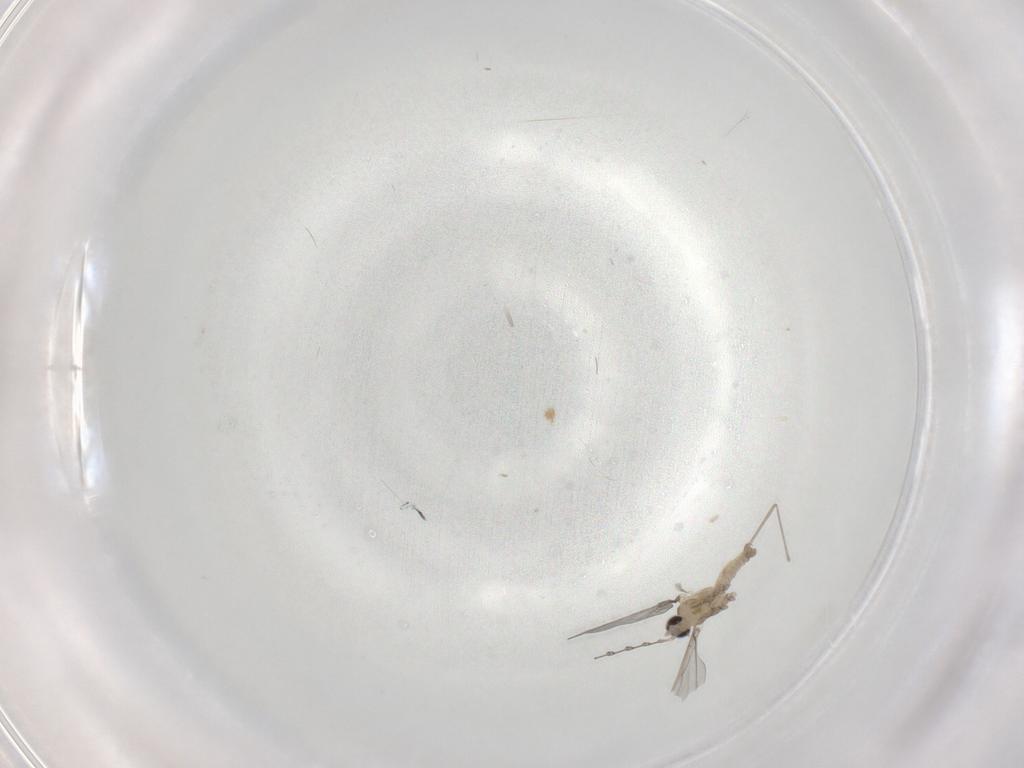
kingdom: Animalia
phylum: Arthropoda
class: Insecta
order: Diptera
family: Cecidomyiidae
